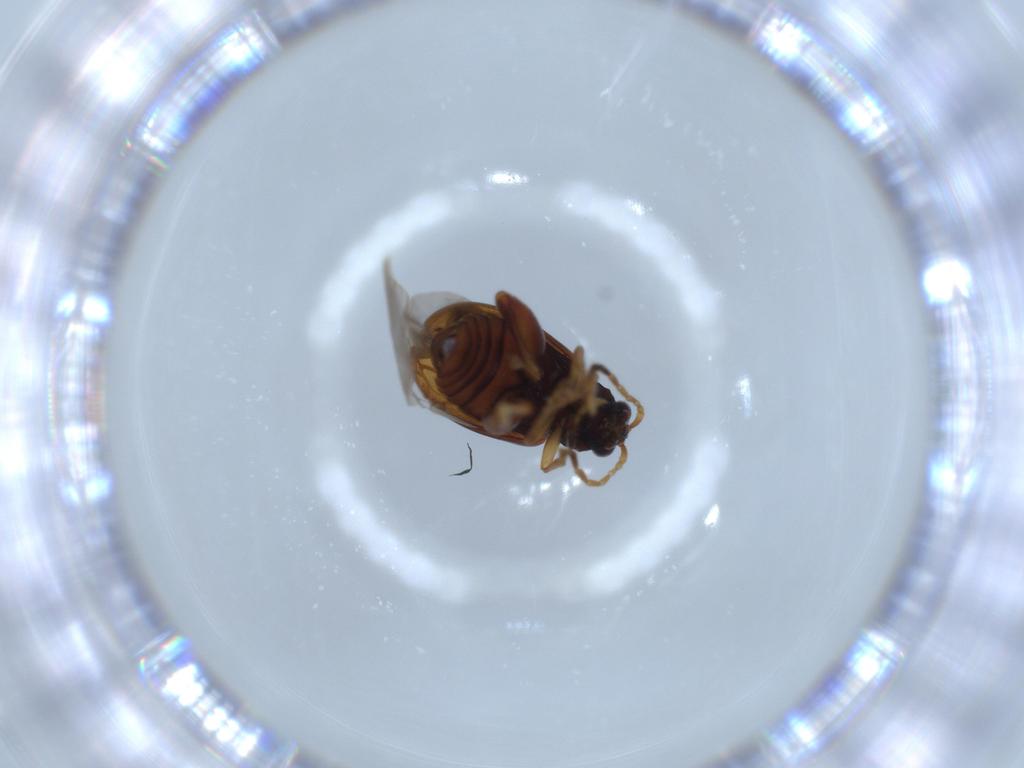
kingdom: Animalia
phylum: Arthropoda
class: Insecta
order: Coleoptera
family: Chrysomelidae
